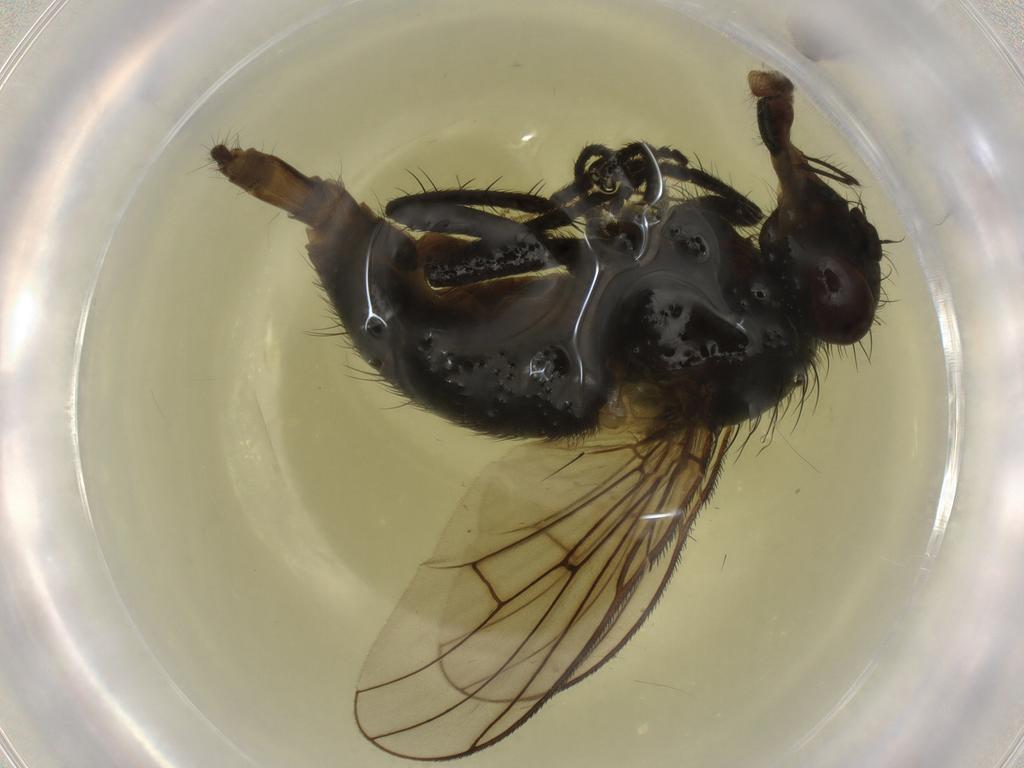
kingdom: Animalia
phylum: Arthropoda
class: Insecta
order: Diptera
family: Muscidae
